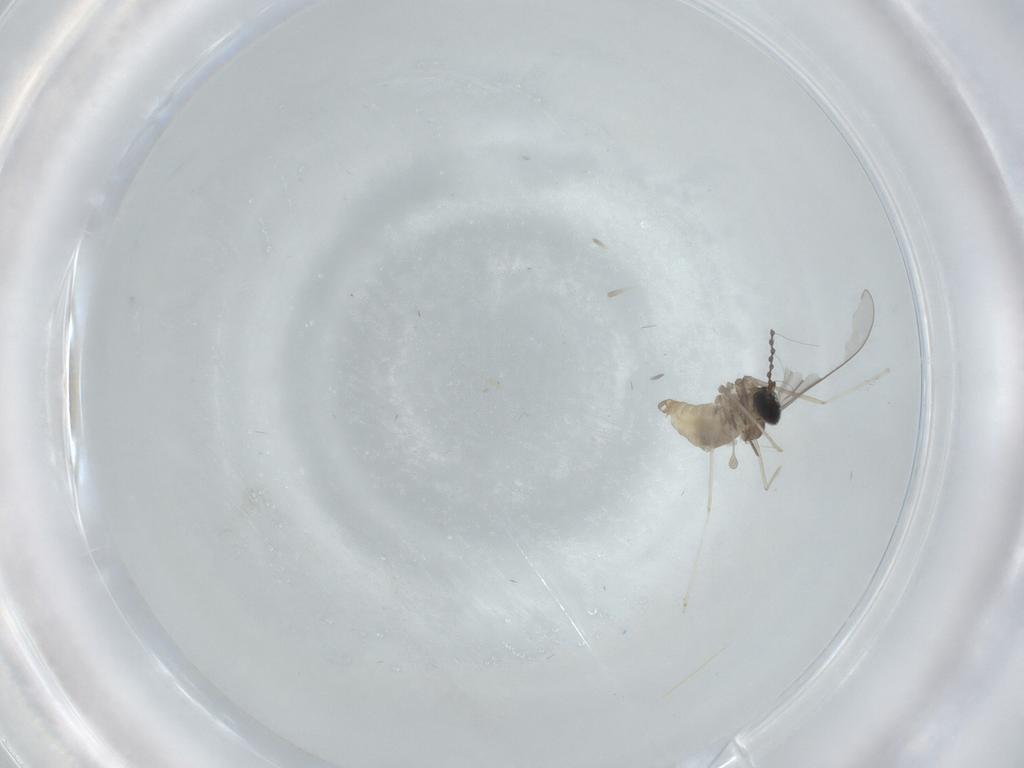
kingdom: Animalia
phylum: Arthropoda
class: Insecta
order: Diptera
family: Cecidomyiidae
